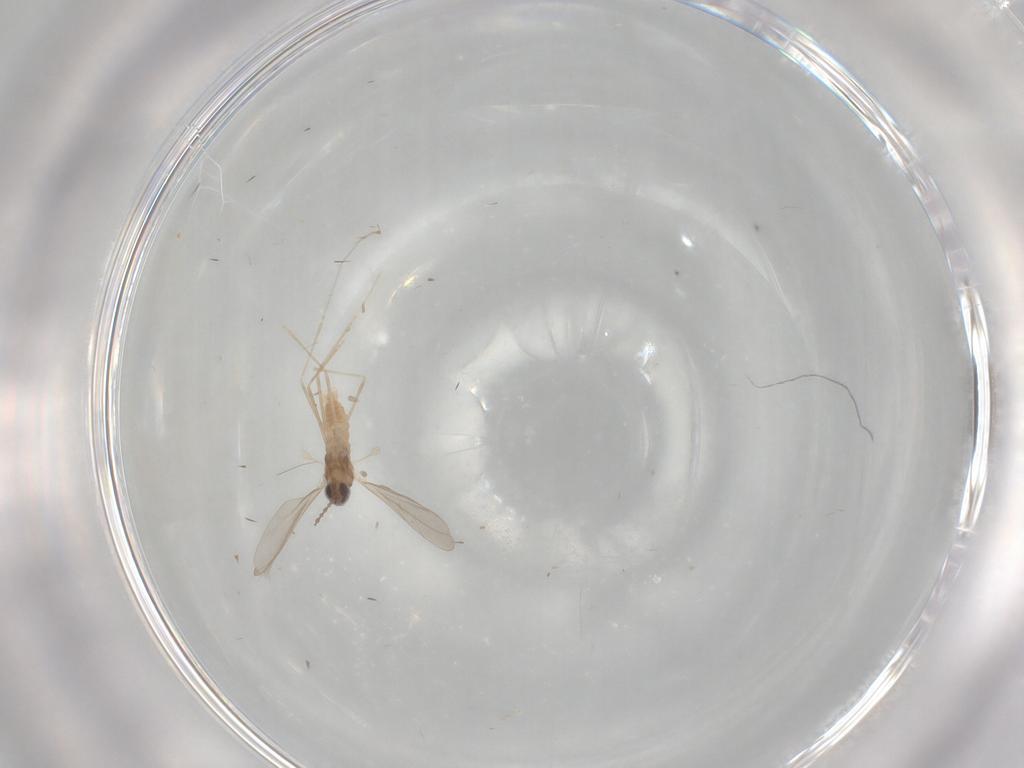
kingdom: Animalia
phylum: Arthropoda
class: Insecta
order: Diptera
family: Cecidomyiidae
